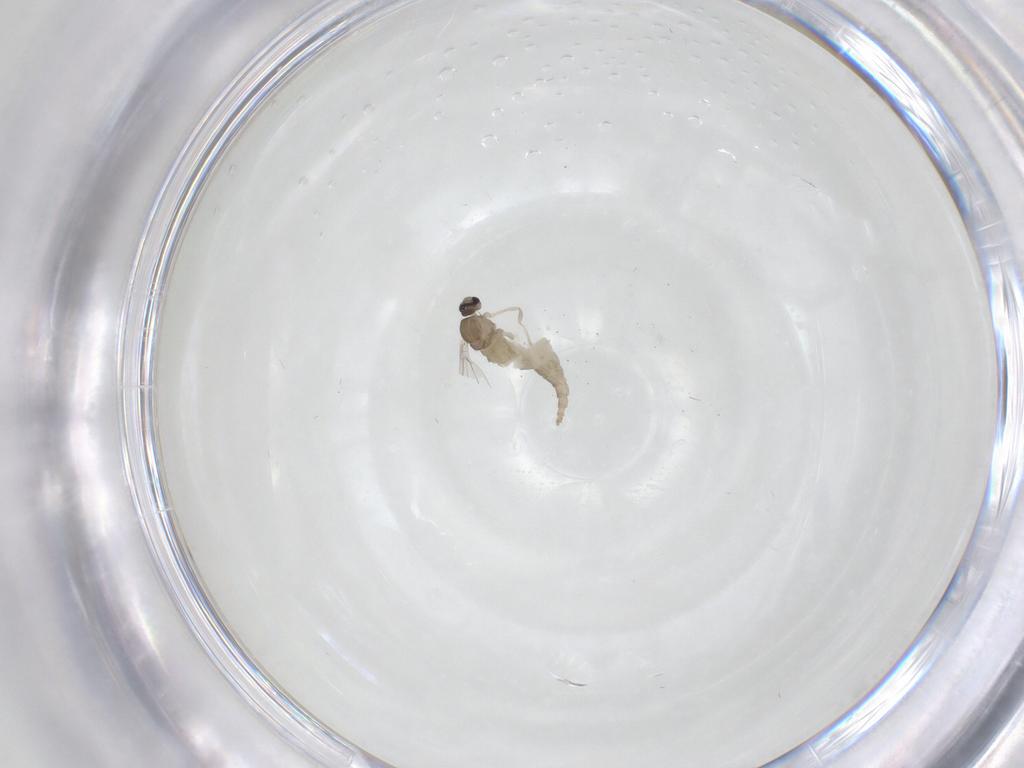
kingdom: Animalia
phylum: Arthropoda
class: Insecta
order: Diptera
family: Cecidomyiidae
